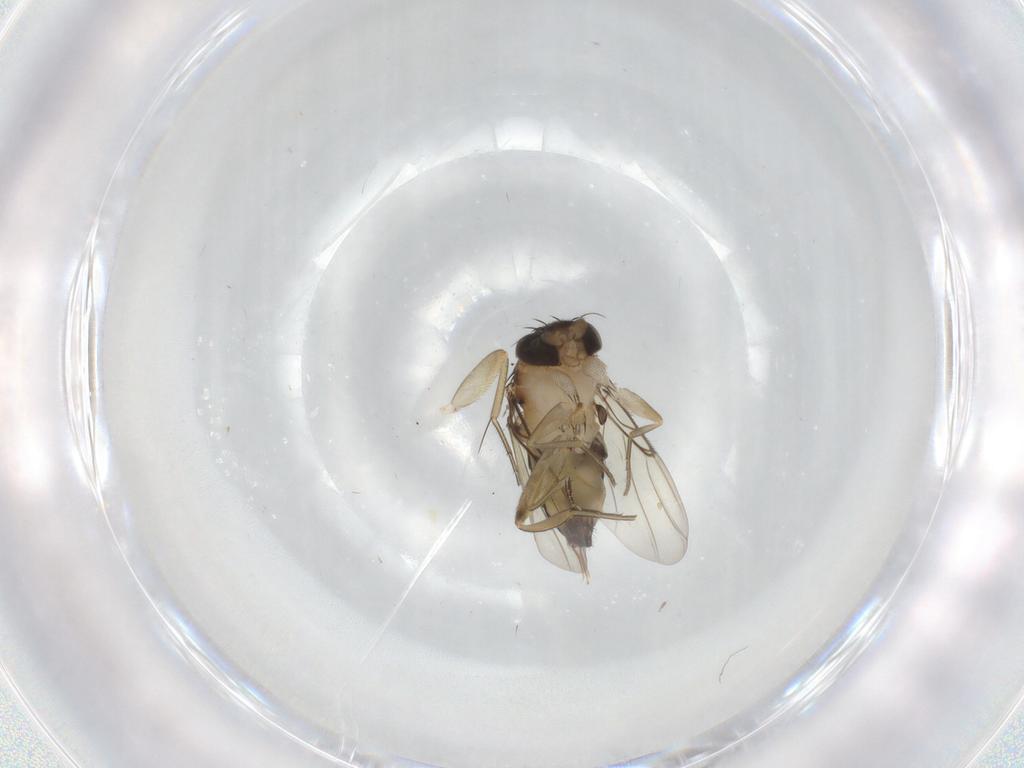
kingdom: Animalia
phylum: Arthropoda
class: Insecta
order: Diptera
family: Phoridae
